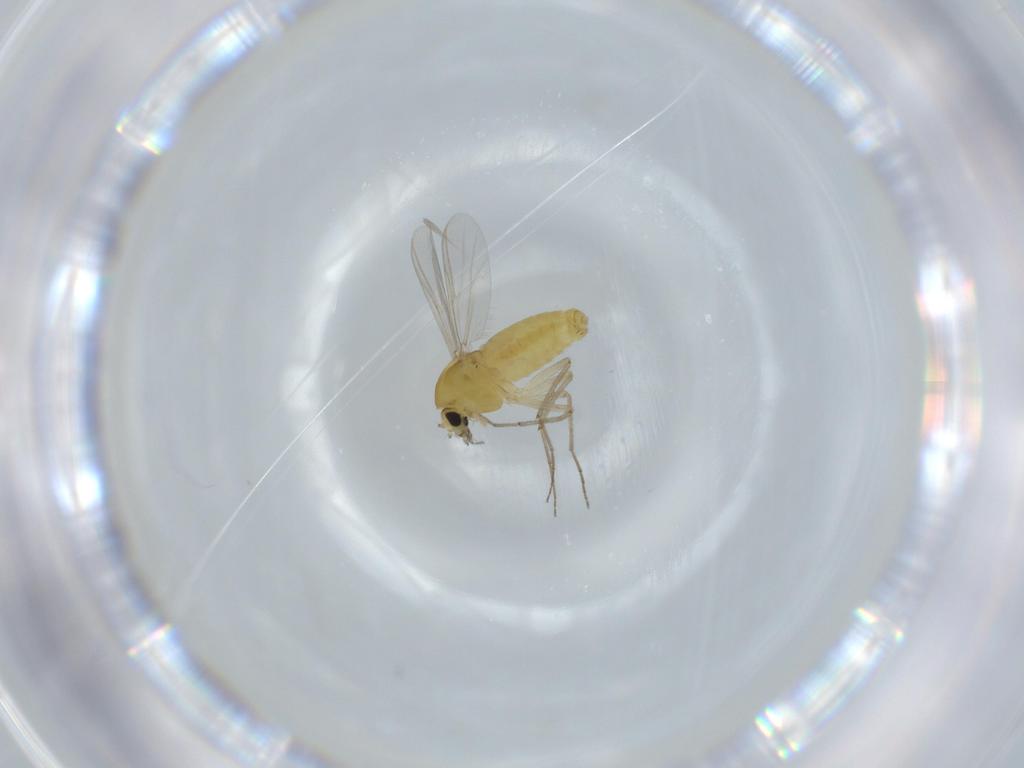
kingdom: Animalia
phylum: Arthropoda
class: Insecta
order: Diptera
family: Chironomidae
